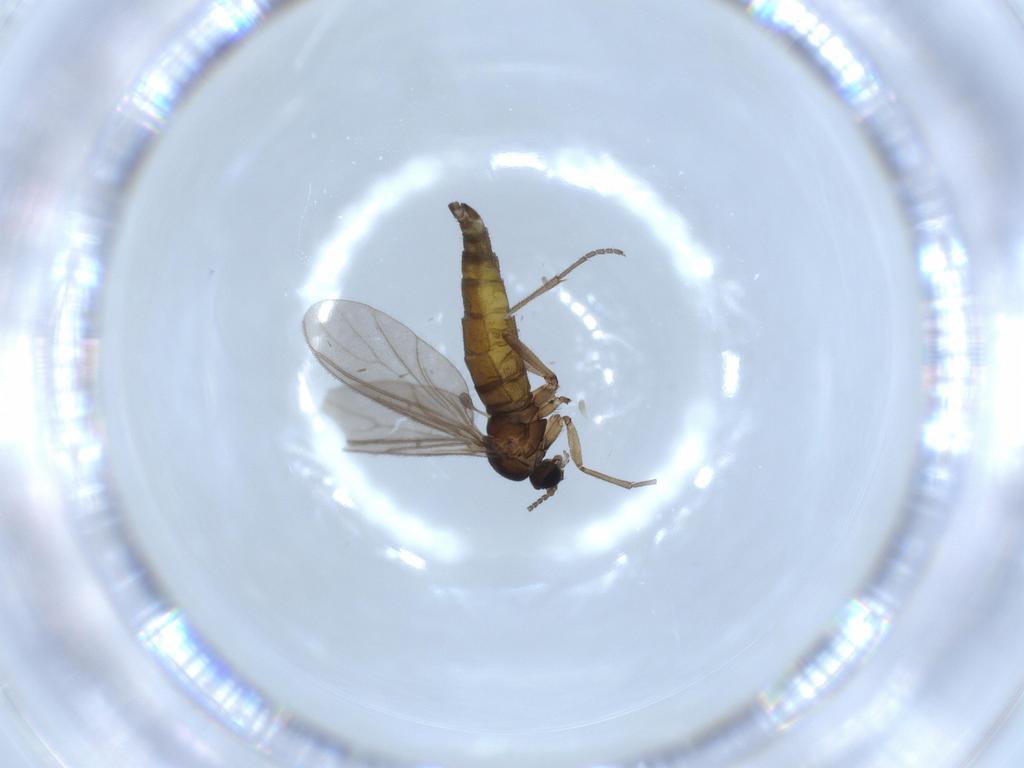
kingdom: Animalia
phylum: Arthropoda
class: Insecta
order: Diptera
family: Sciaridae
